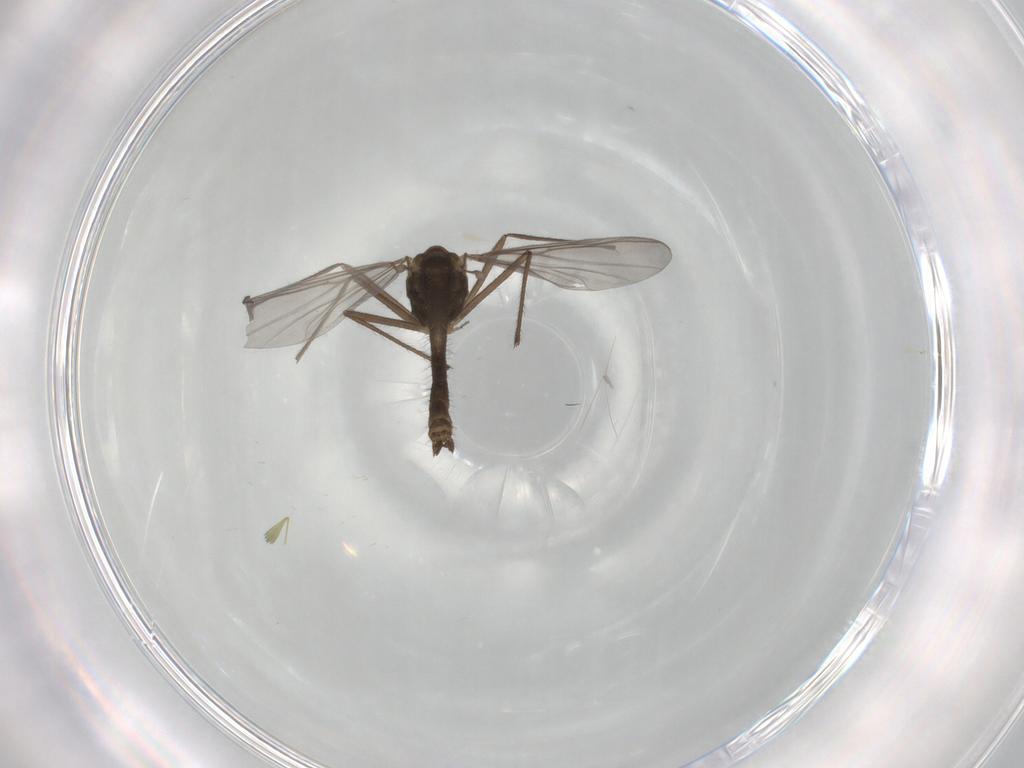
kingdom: Animalia
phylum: Arthropoda
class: Insecta
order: Diptera
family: Chironomidae
